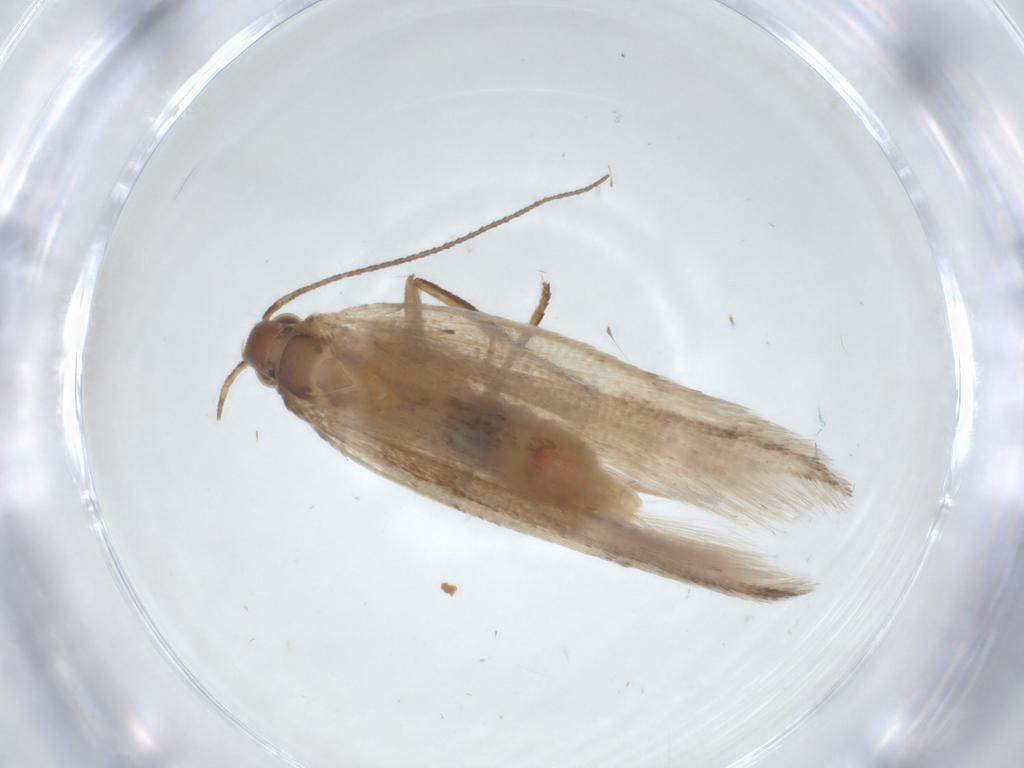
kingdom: Animalia
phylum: Arthropoda
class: Insecta
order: Lepidoptera
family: Gelechiidae
